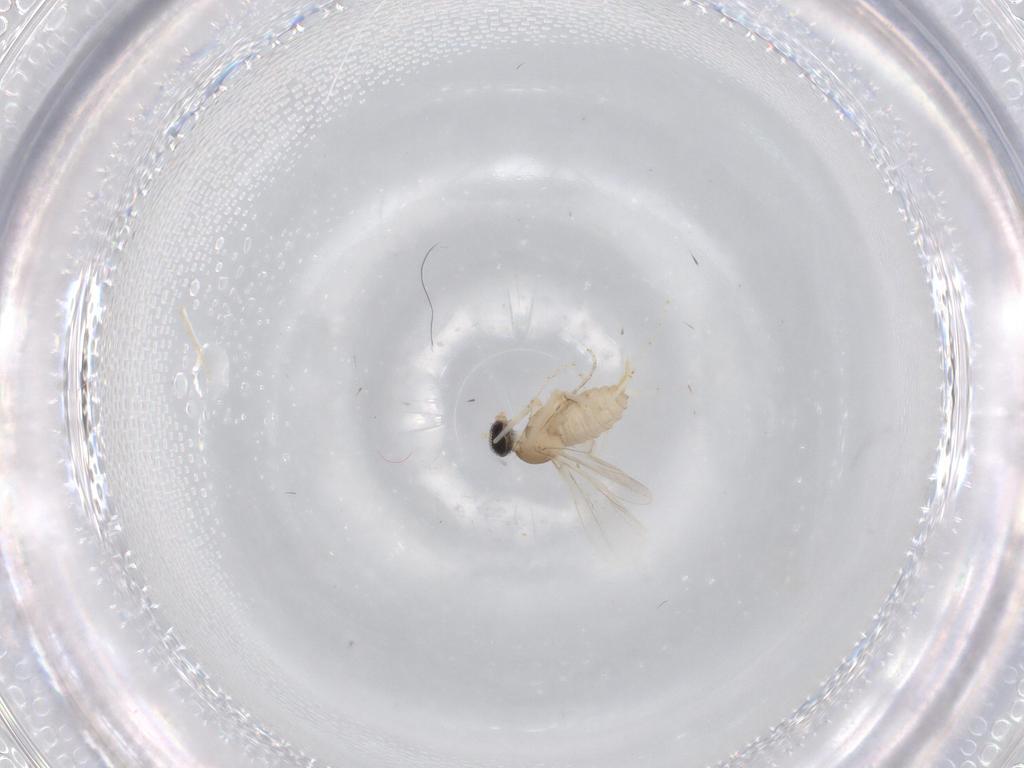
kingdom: Animalia
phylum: Arthropoda
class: Insecta
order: Diptera
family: Cecidomyiidae
